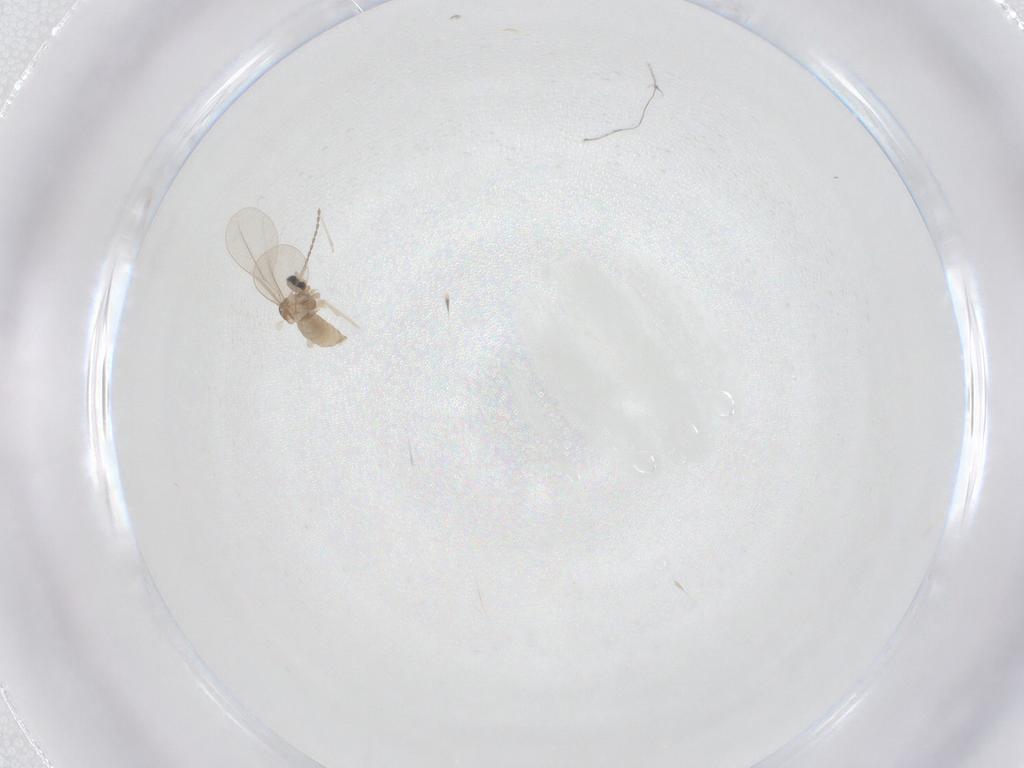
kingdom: Animalia
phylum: Arthropoda
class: Insecta
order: Diptera
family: Cecidomyiidae
